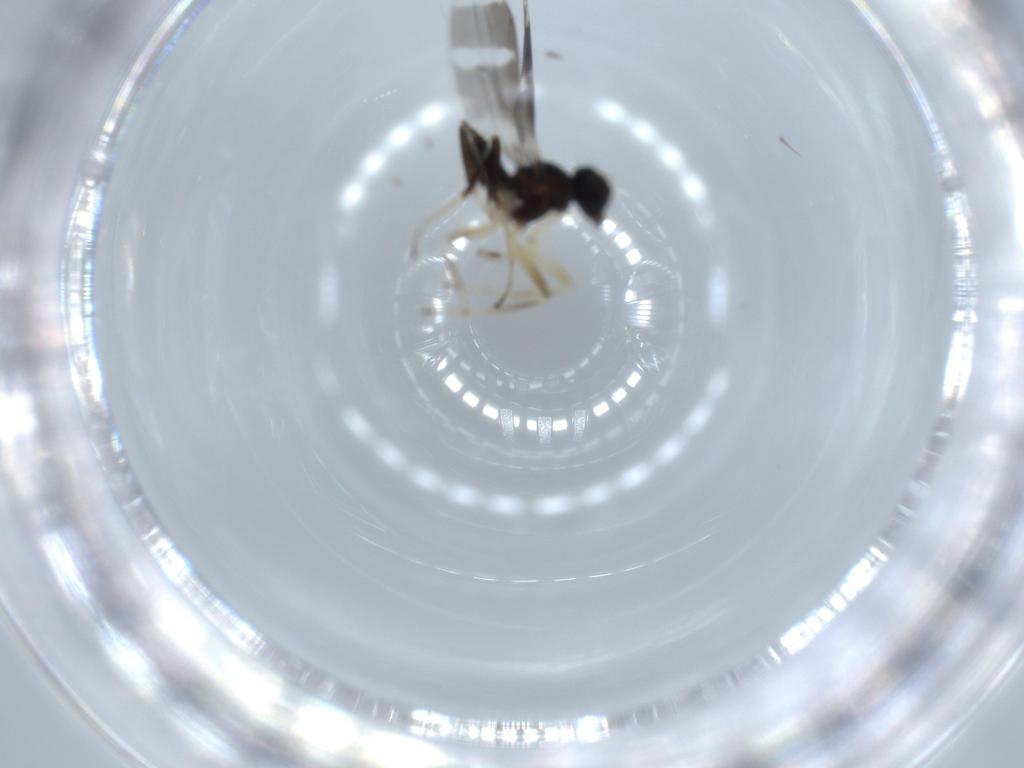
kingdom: Animalia
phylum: Arthropoda
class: Insecta
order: Diptera
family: Hybotidae
